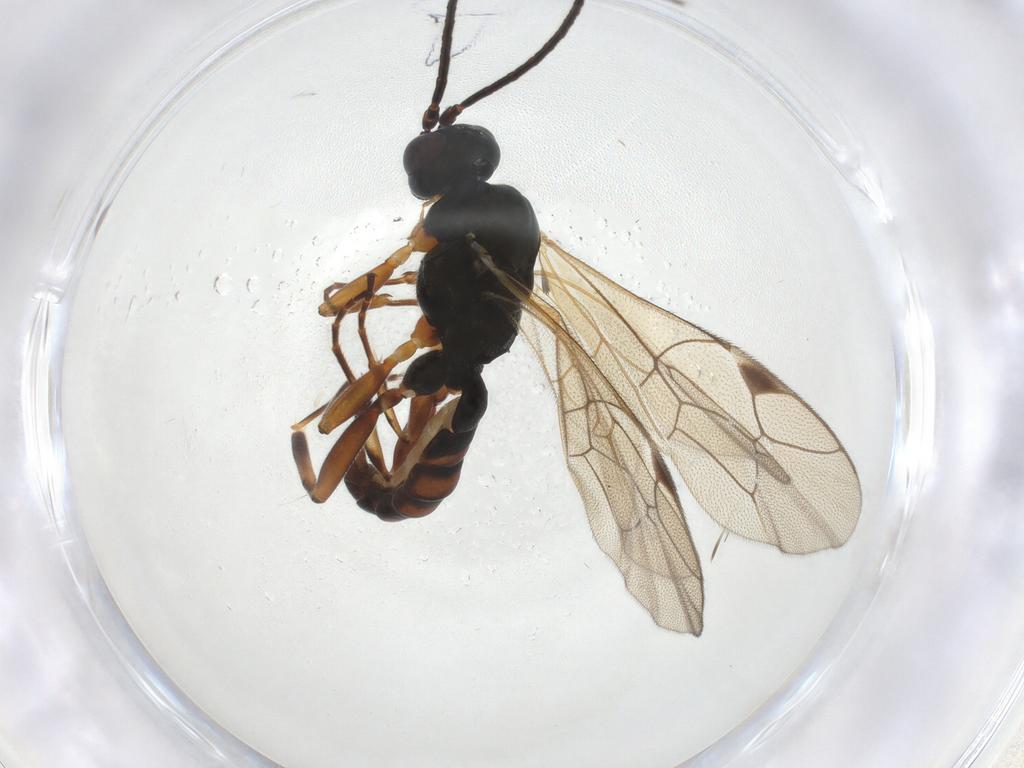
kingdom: Animalia
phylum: Arthropoda
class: Insecta
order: Hymenoptera
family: Ichneumonidae
